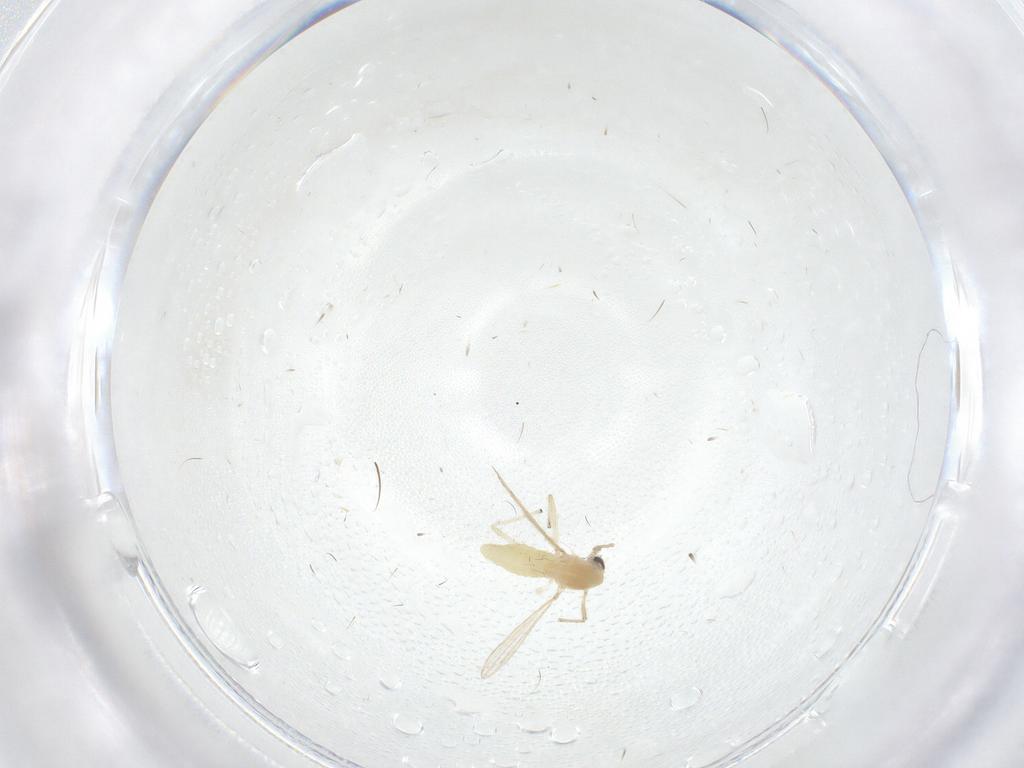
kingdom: Animalia
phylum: Arthropoda
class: Insecta
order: Diptera
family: Chironomidae
